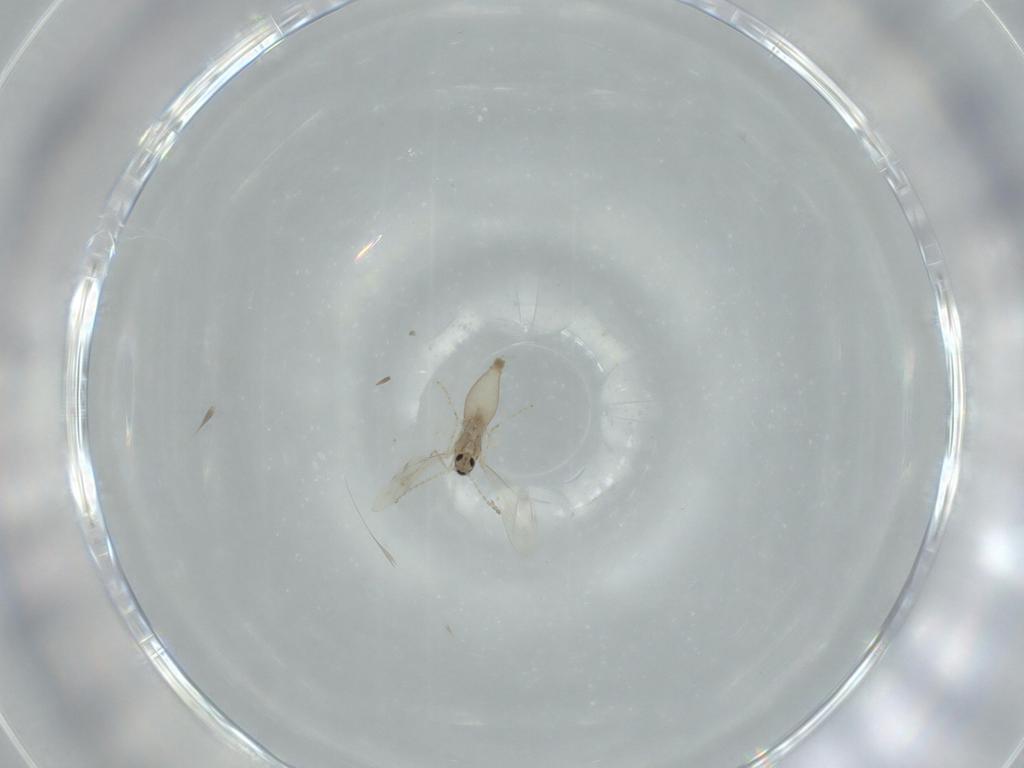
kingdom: Animalia
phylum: Arthropoda
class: Insecta
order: Diptera
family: Cecidomyiidae
